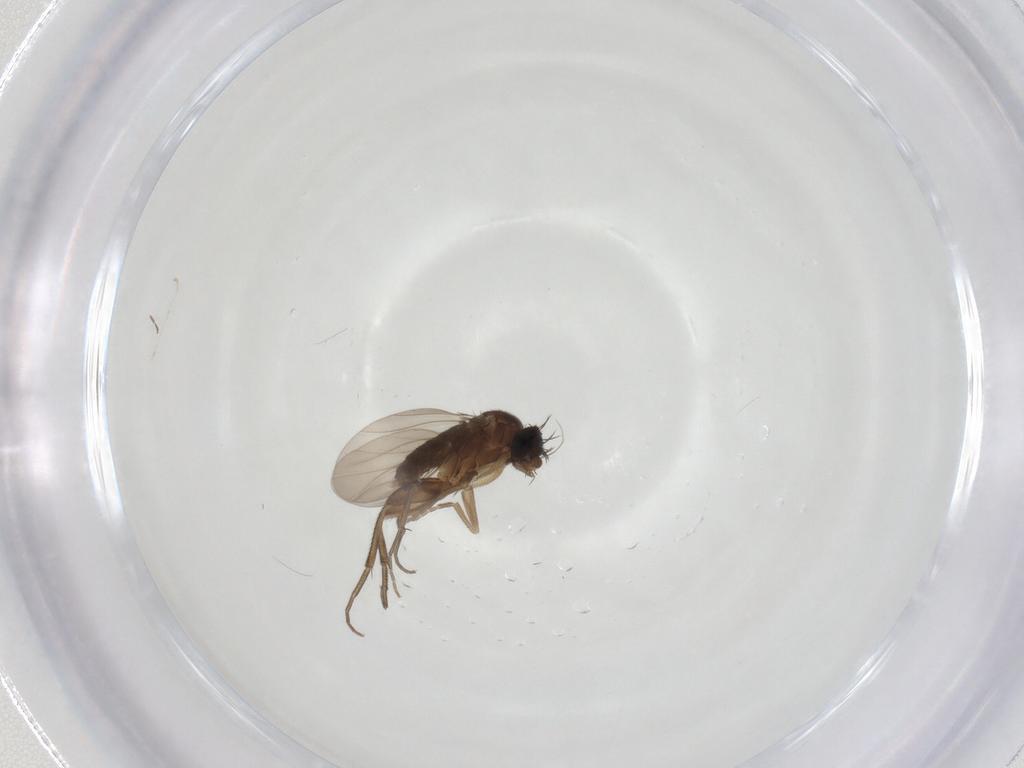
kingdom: Animalia
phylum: Arthropoda
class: Insecta
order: Diptera
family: Phoridae
